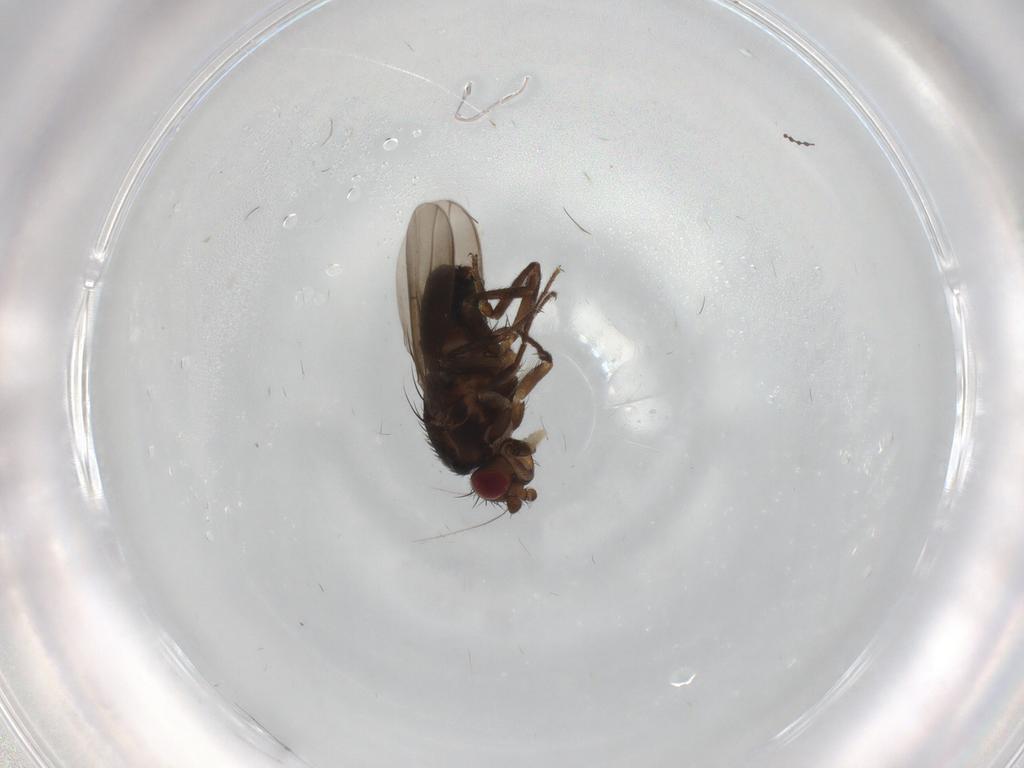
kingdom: Animalia
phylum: Arthropoda
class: Insecta
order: Diptera
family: Sphaeroceridae
